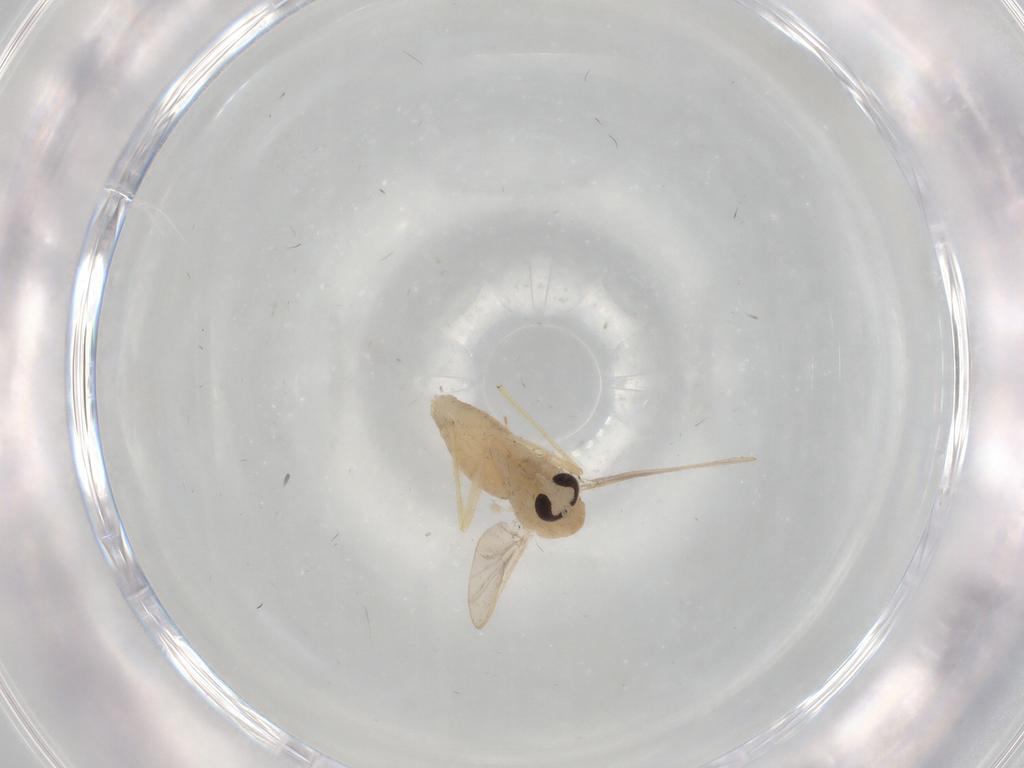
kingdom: Animalia
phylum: Arthropoda
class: Insecta
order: Diptera
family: Chironomidae
